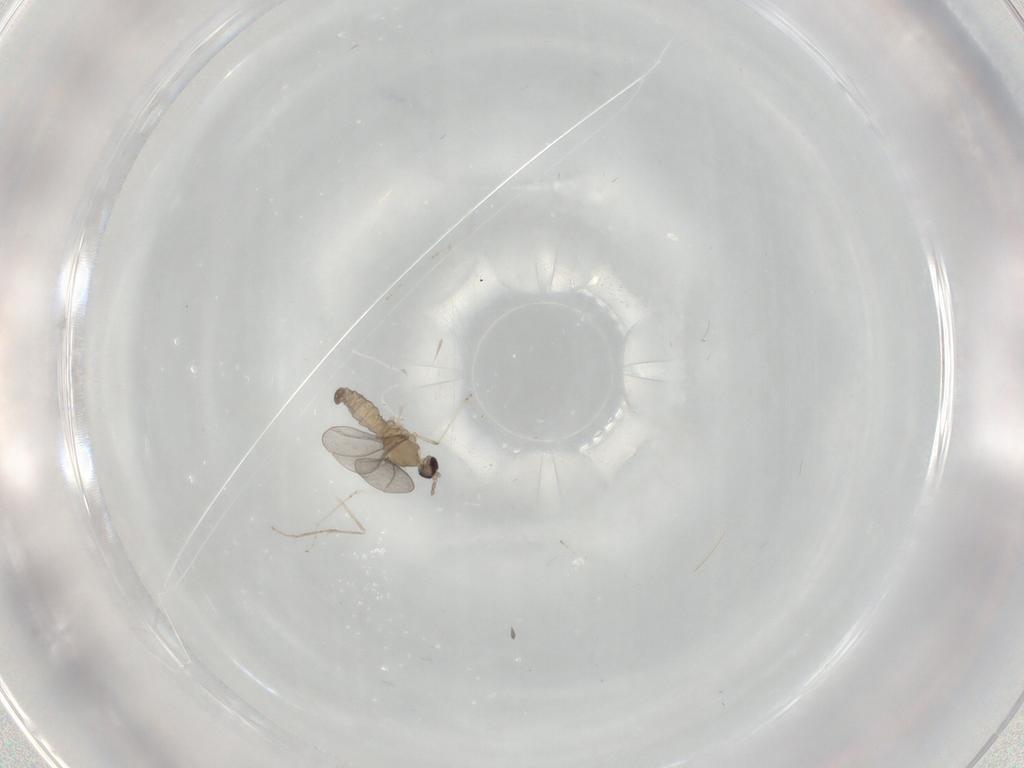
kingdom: Animalia
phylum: Arthropoda
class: Insecta
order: Diptera
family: Cecidomyiidae
